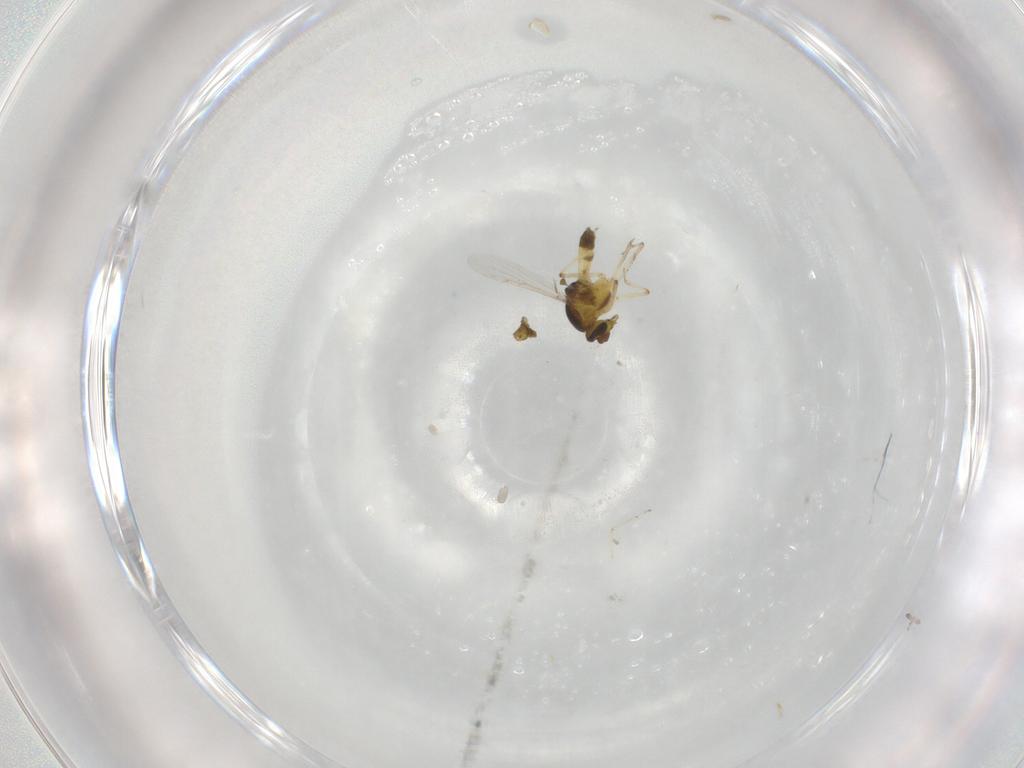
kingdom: Animalia
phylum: Arthropoda
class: Insecta
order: Diptera
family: Ceratopogonidae
